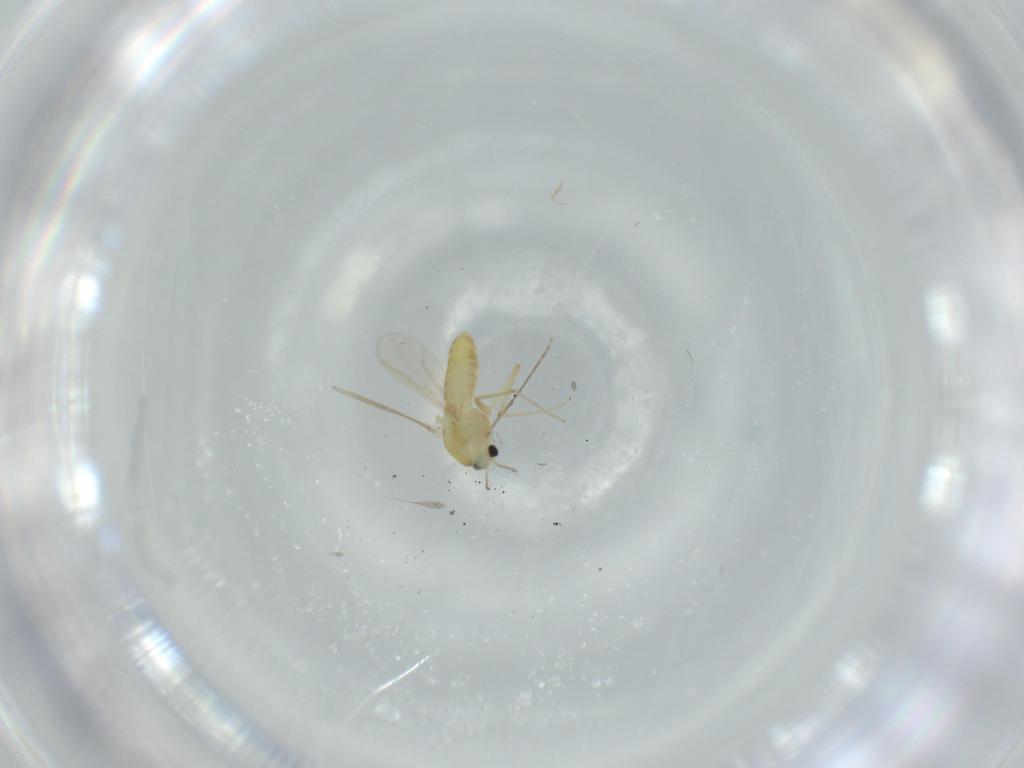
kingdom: Animalia
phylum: Arthropoda
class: Insecta
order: Diptera
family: Chironomidae
